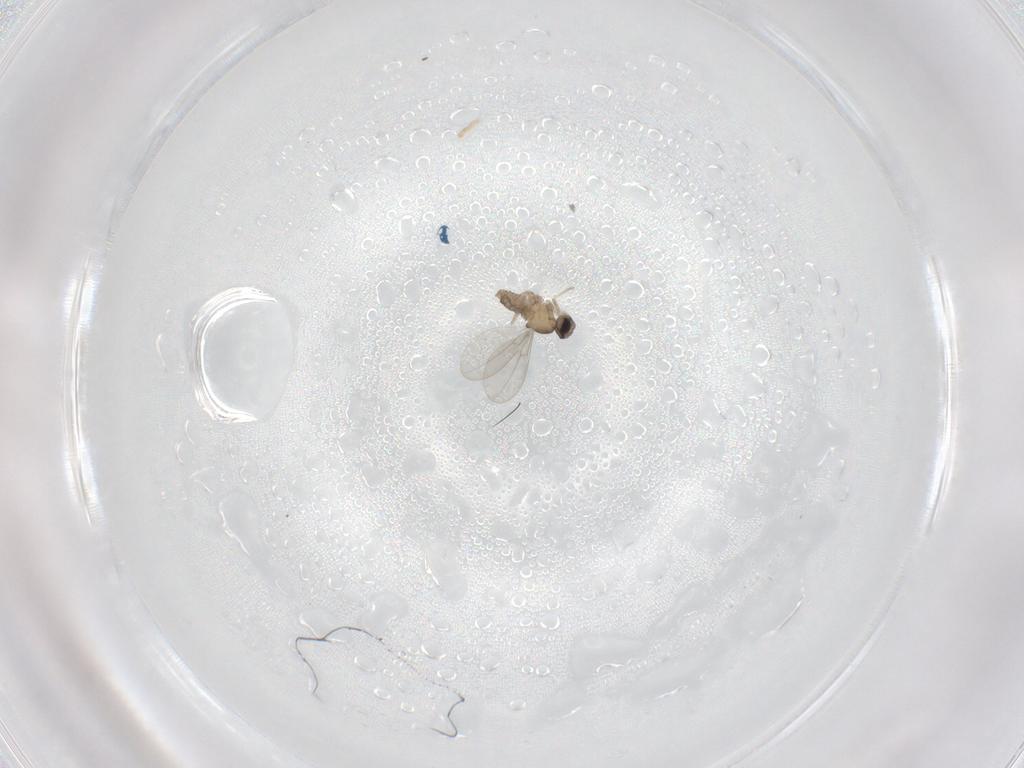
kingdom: Animalia
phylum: Arthropoda
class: Insecta
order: Diptera
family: Cecidomyiidae
